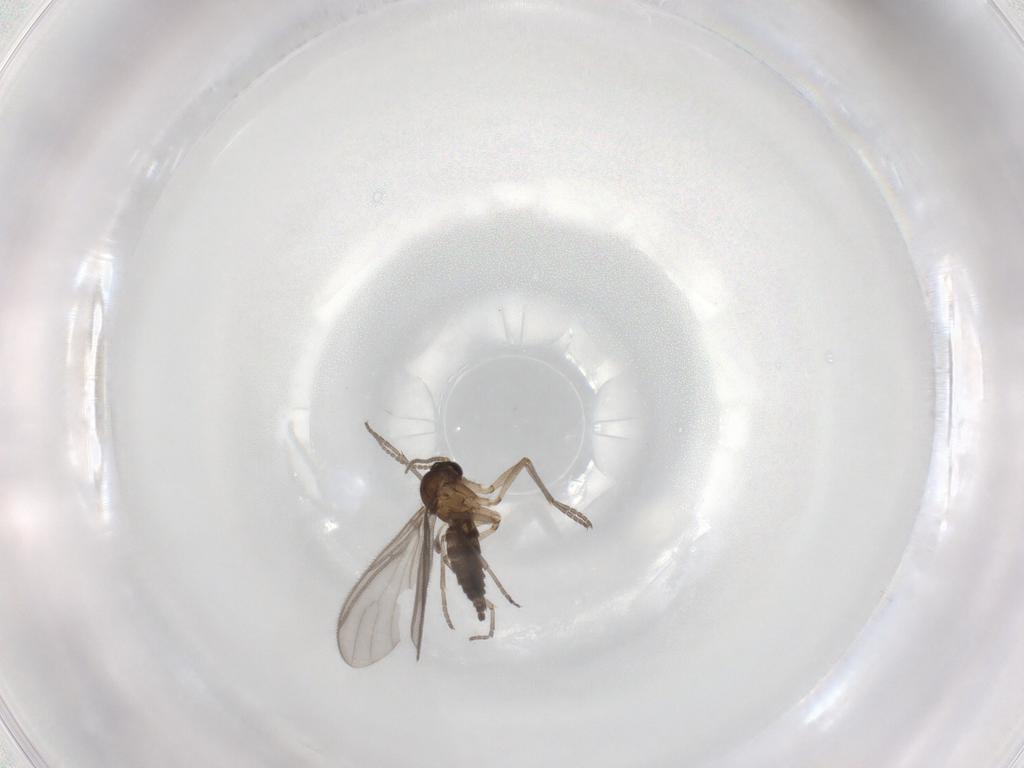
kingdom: Animalia
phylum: Arthropoda
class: Insecta
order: Diptera
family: Sciaridae
